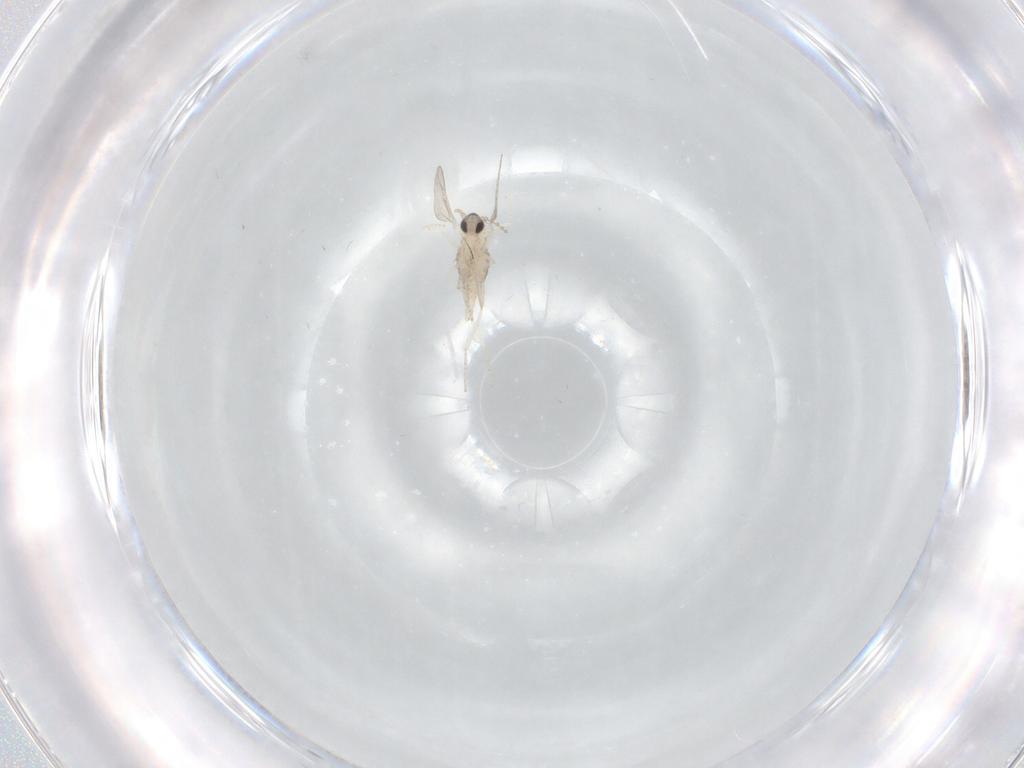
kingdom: Animalia
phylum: Arthropoda
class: Insecta
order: Diptera
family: Cecidomyiidae
